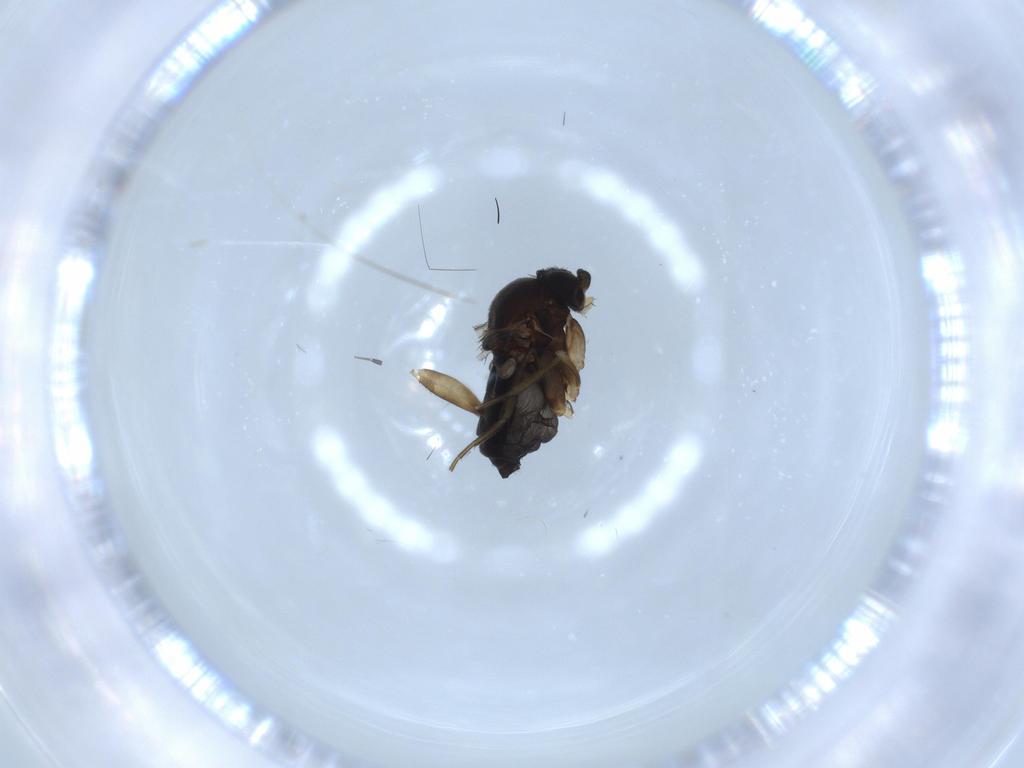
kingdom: Animalia
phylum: Arthropoda
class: Insecta
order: Diptera
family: Phoridae
